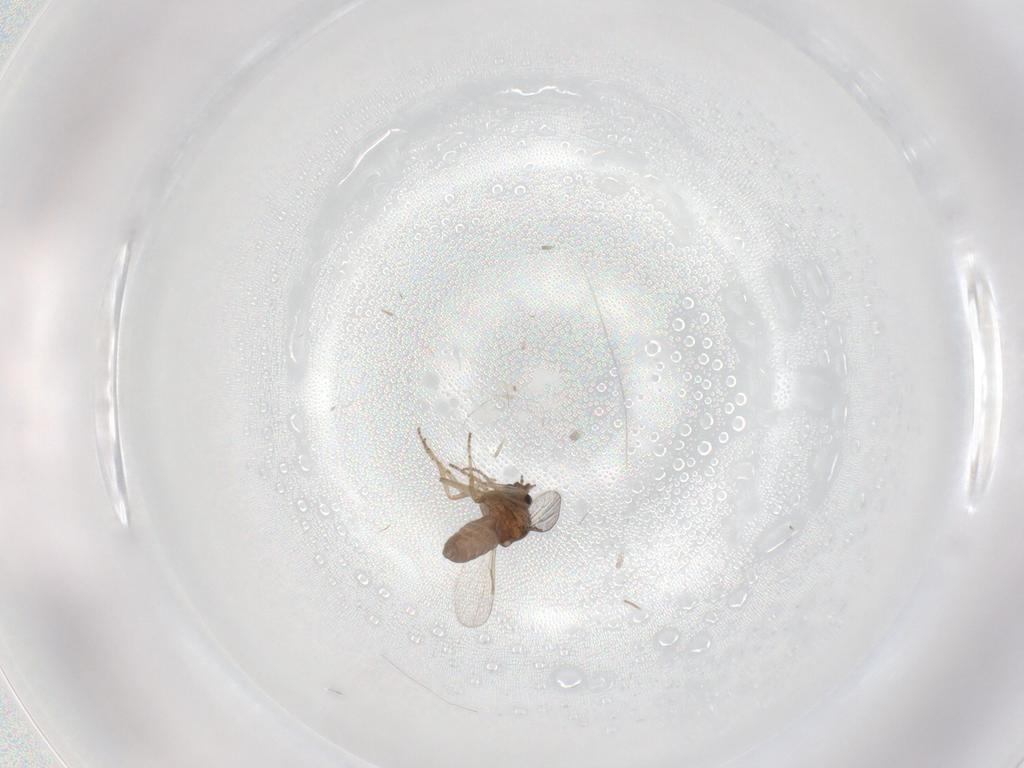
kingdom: Animalia
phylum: Arthropoda
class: Insecta
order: Diptera
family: Ceratopogonidae
